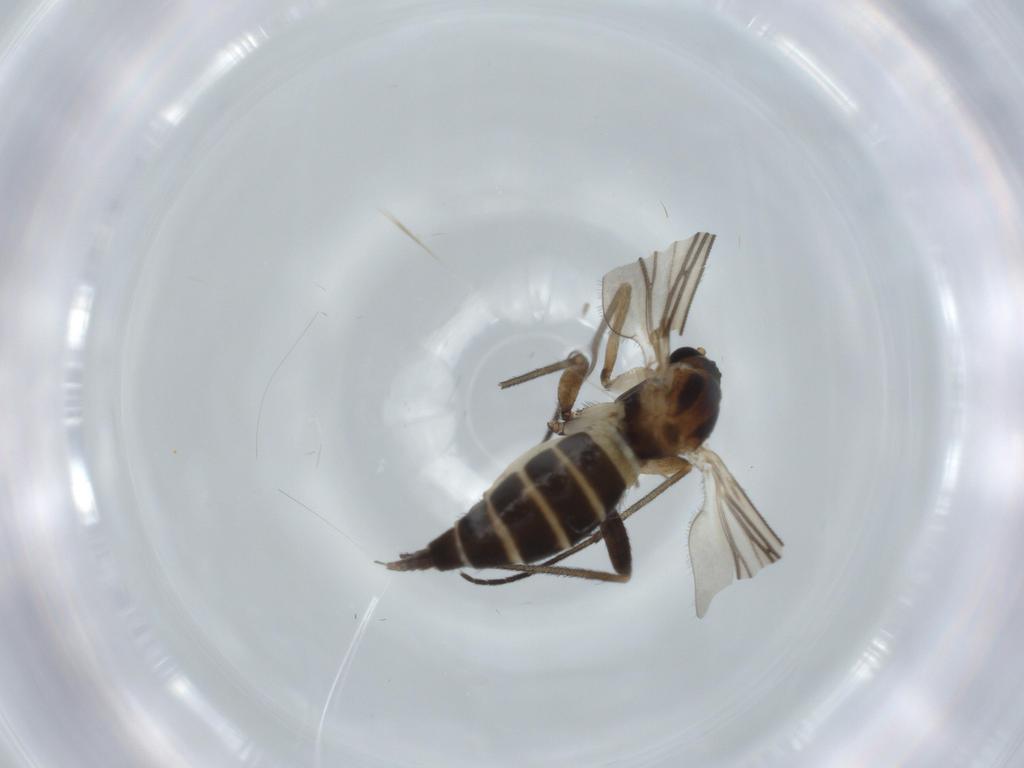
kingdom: Animalia
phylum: Arthropoda
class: Insecta
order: Diptera
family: Sciaridae
